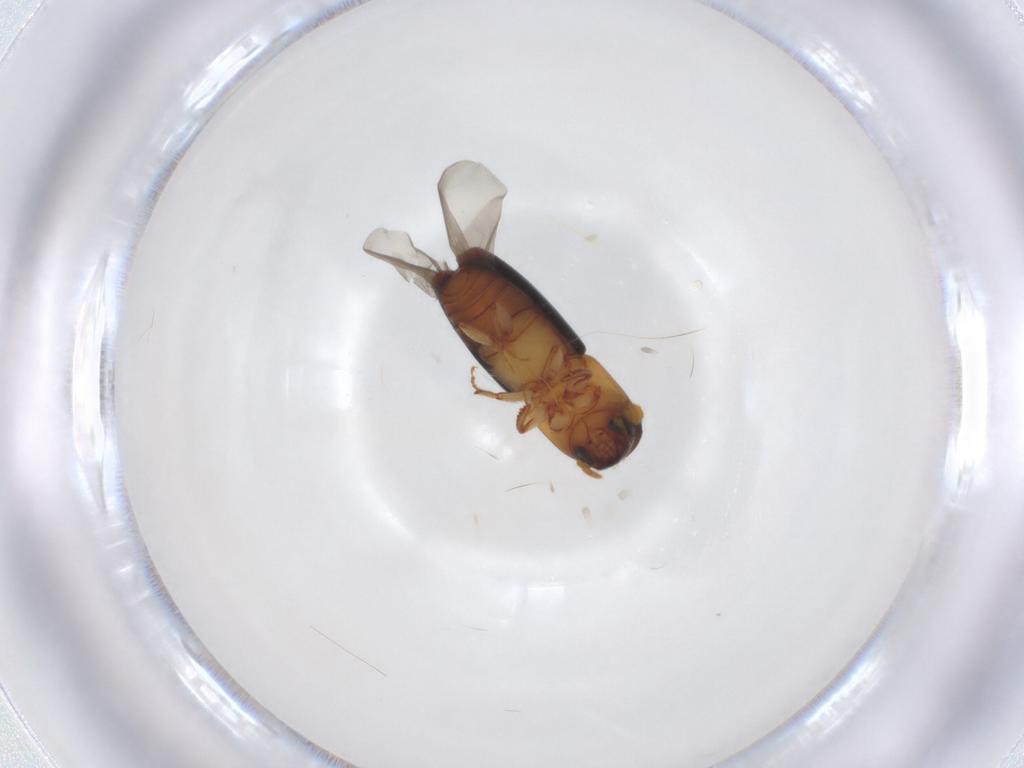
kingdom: Animalia
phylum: Arthropoda
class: Insecta
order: Coleoptera
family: Curculionidae
